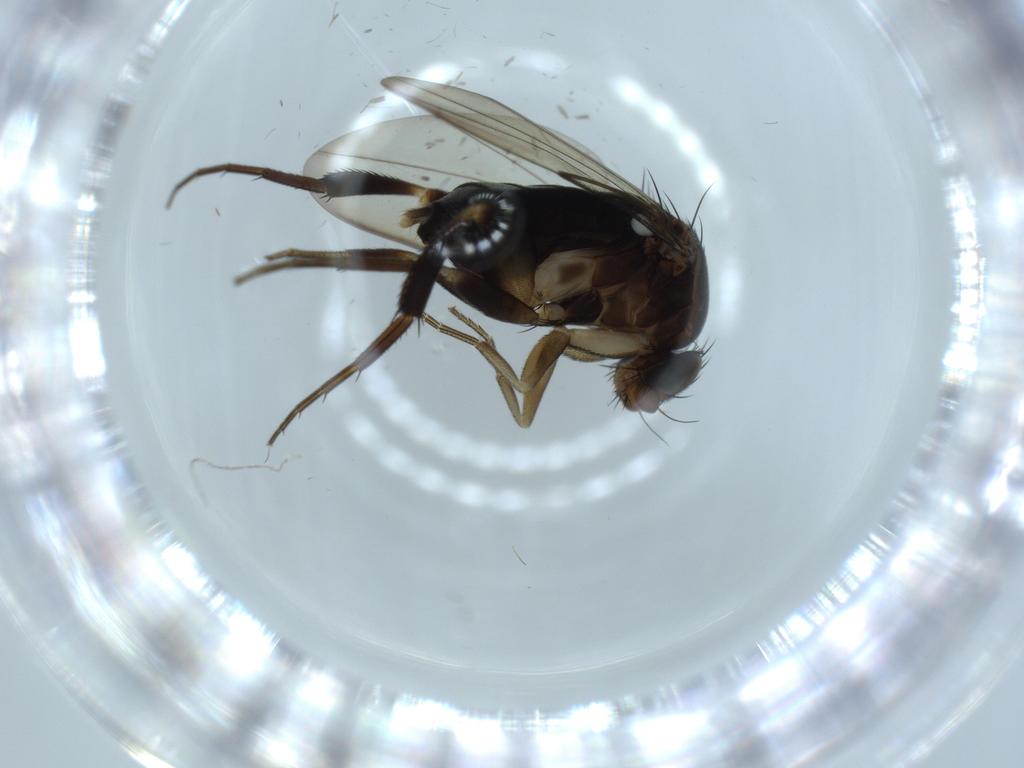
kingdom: Animalia
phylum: Arthropoda
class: Insecta
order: Diptera
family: Phoridae
